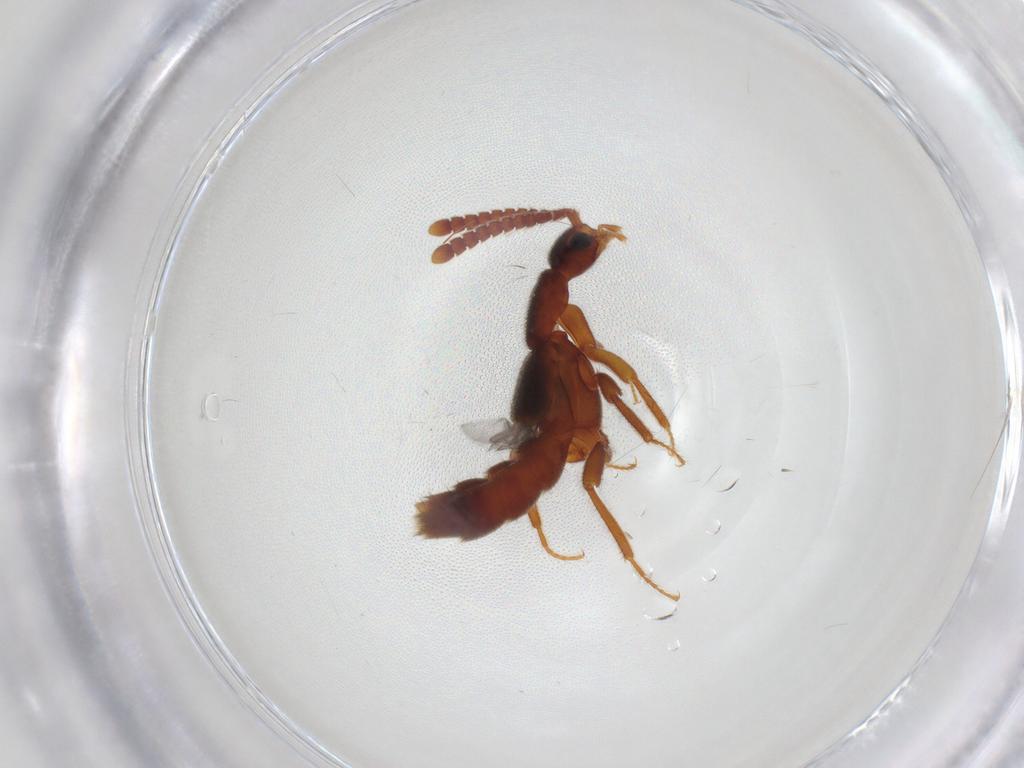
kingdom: Animalia
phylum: Arthropoda
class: Insecta
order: Coleoptera
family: Staphylinidae
